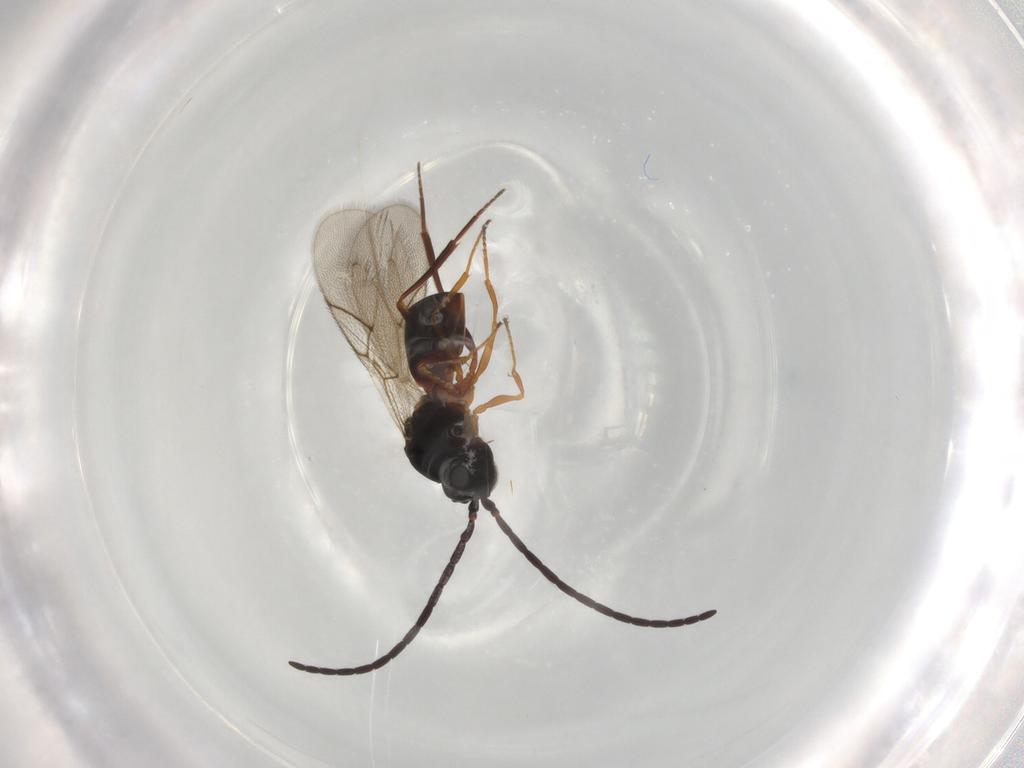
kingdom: Animalia
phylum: Arthropoda
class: Insecta
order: Hymenoptera
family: Figitidae
